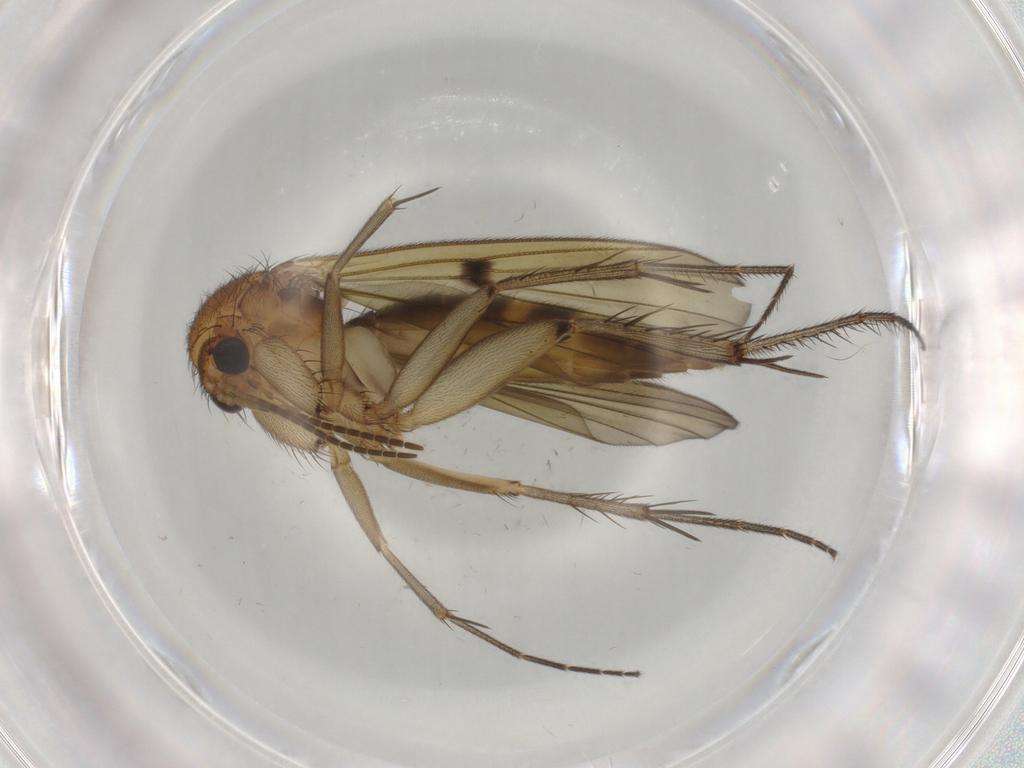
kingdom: Animalia
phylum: Arthropoda
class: Insecta
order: Diptera
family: Mycetophilidae
